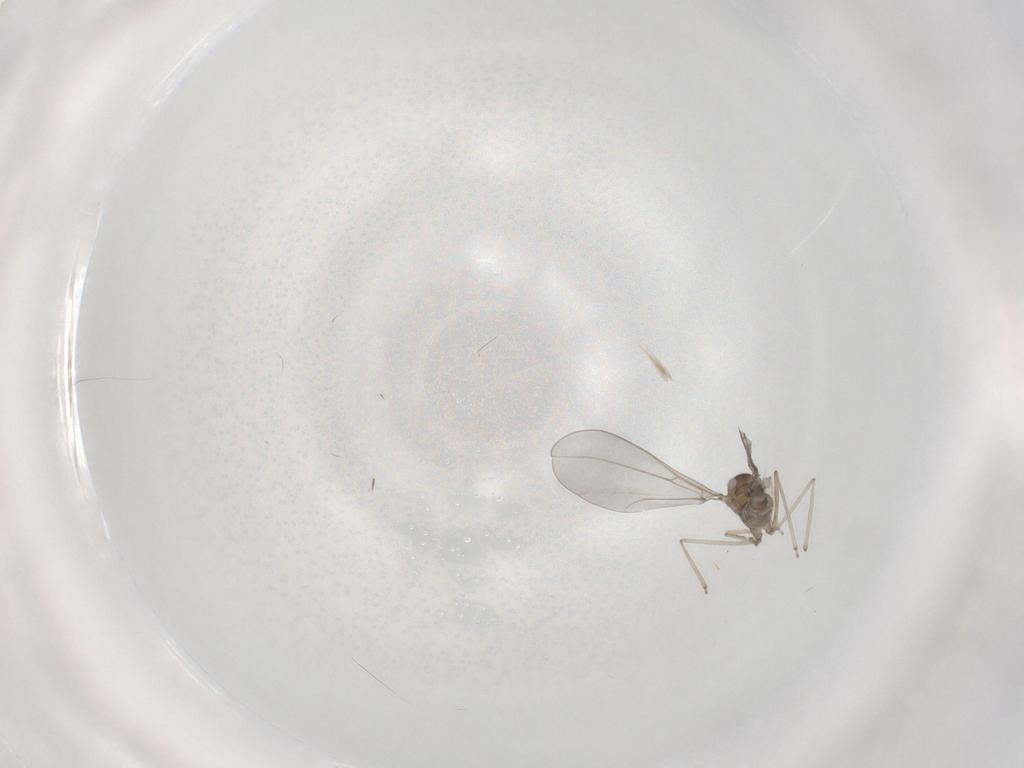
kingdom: Animalia
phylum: Arthropoda
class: Insecta
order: Diptera
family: Cecidomyiidae
